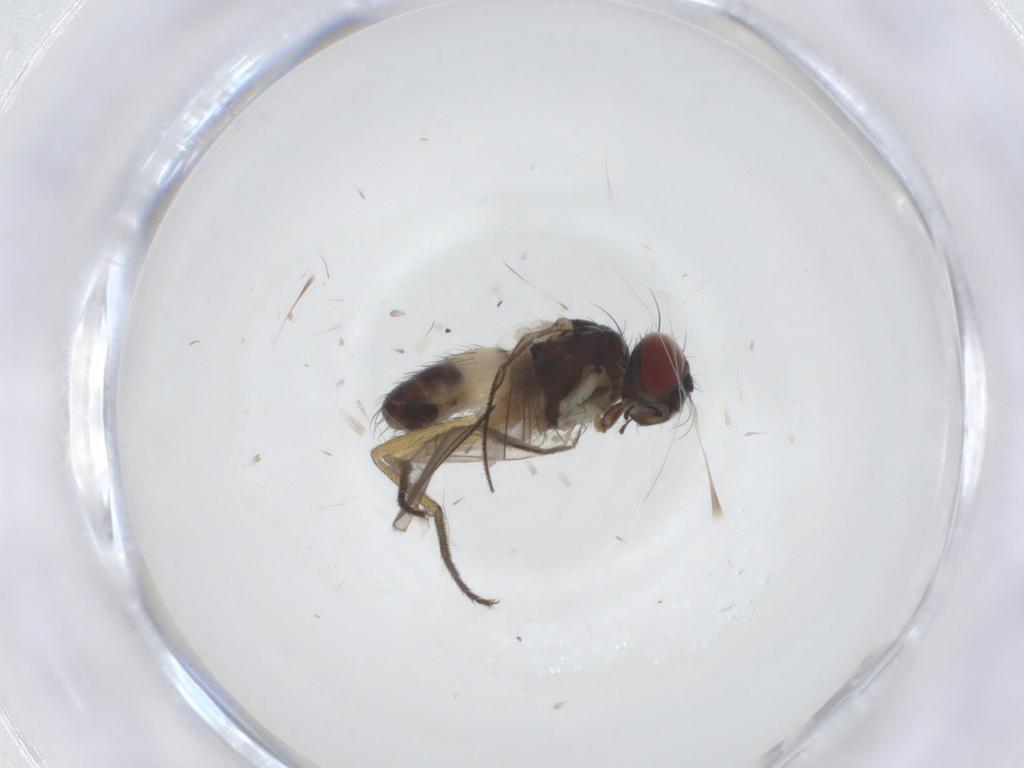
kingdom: Animalia
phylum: Arthropoda
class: Insecta
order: Diptera
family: Muscidae
